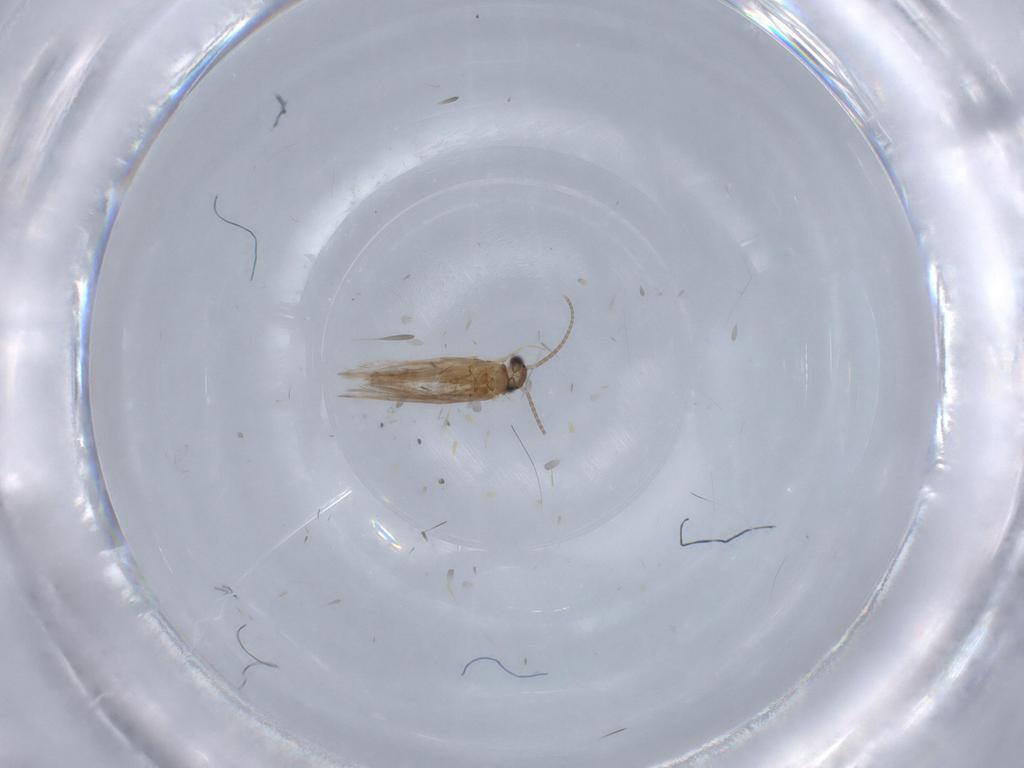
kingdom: Animalia
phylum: Arthropoda
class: Insecta
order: Trichoptera
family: Hydroptilidae
